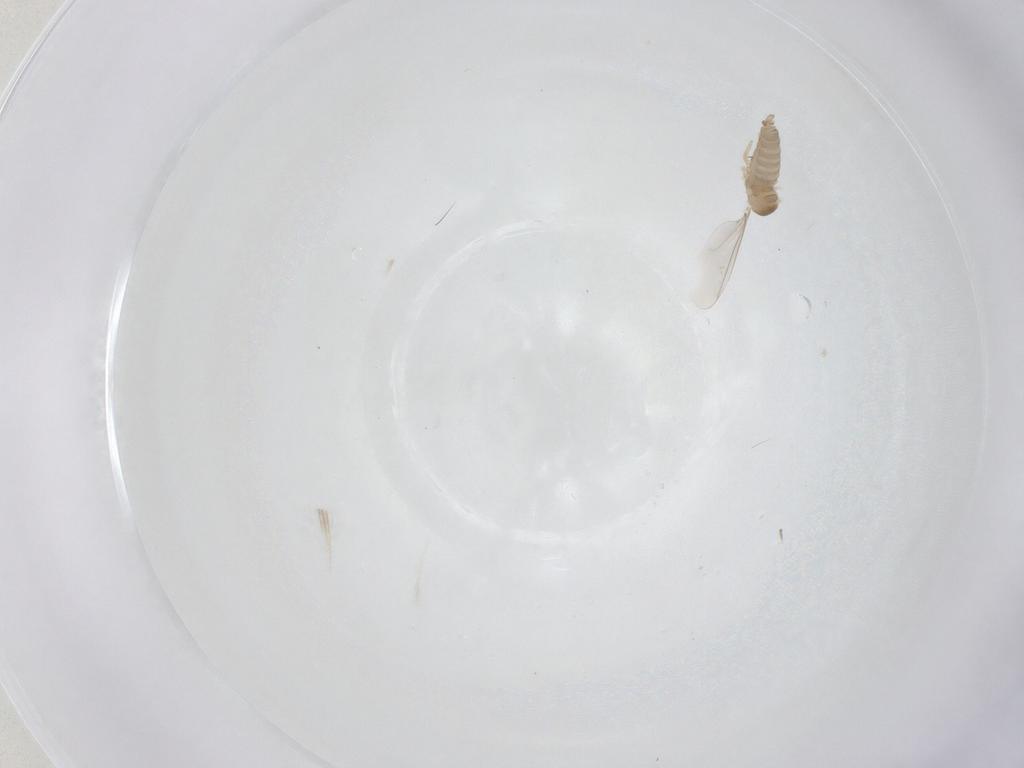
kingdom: Animalia
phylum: Arthropoda
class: Insecta
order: Diptera
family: Cecidomyiidae
